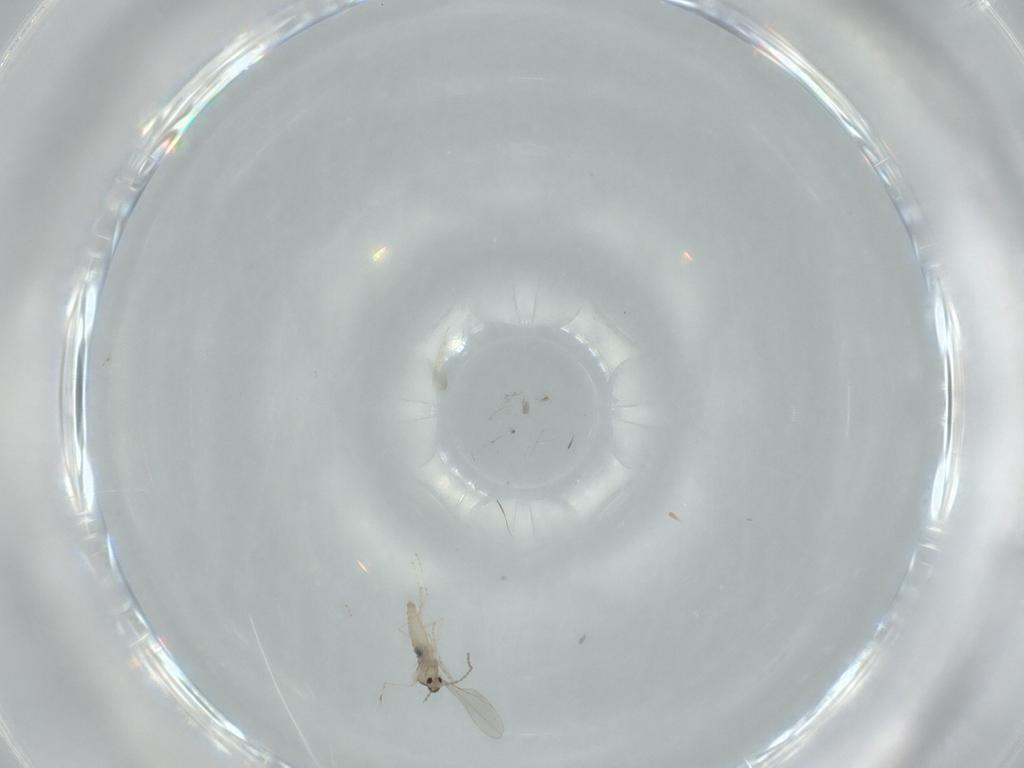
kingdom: Animalia
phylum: Arthropoda
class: Insecta
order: Diptera
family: Cecidomyiidae
